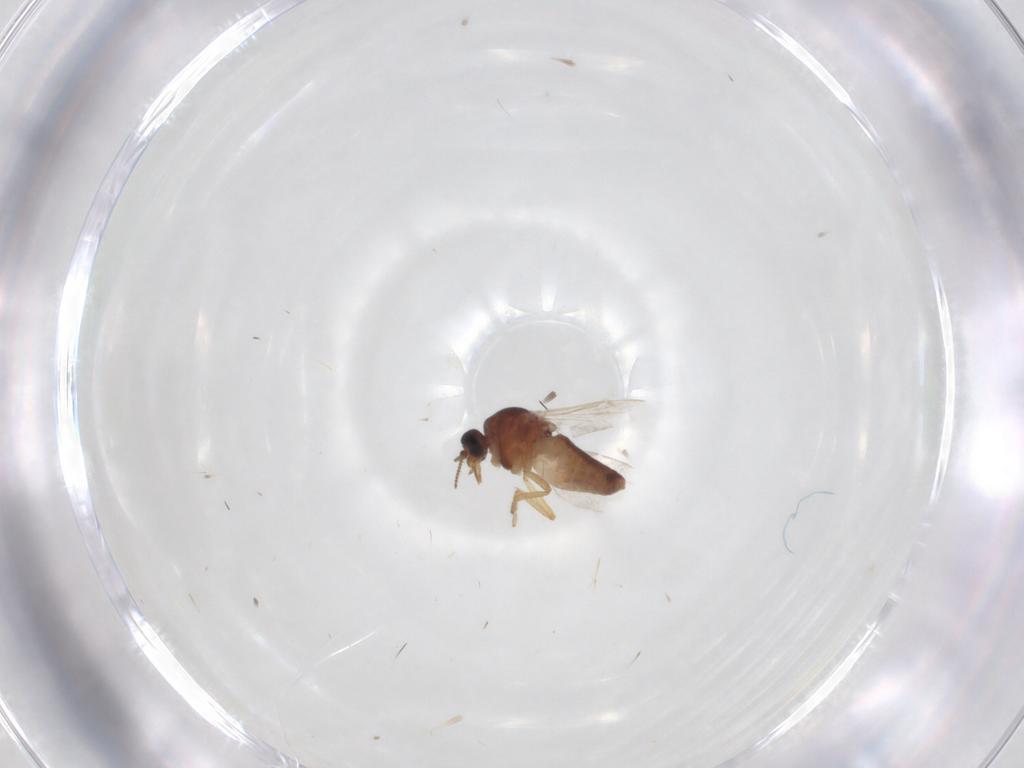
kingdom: Animalia
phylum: Arthropoda
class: Insecta
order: Diptera
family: Ceratopogonidae
